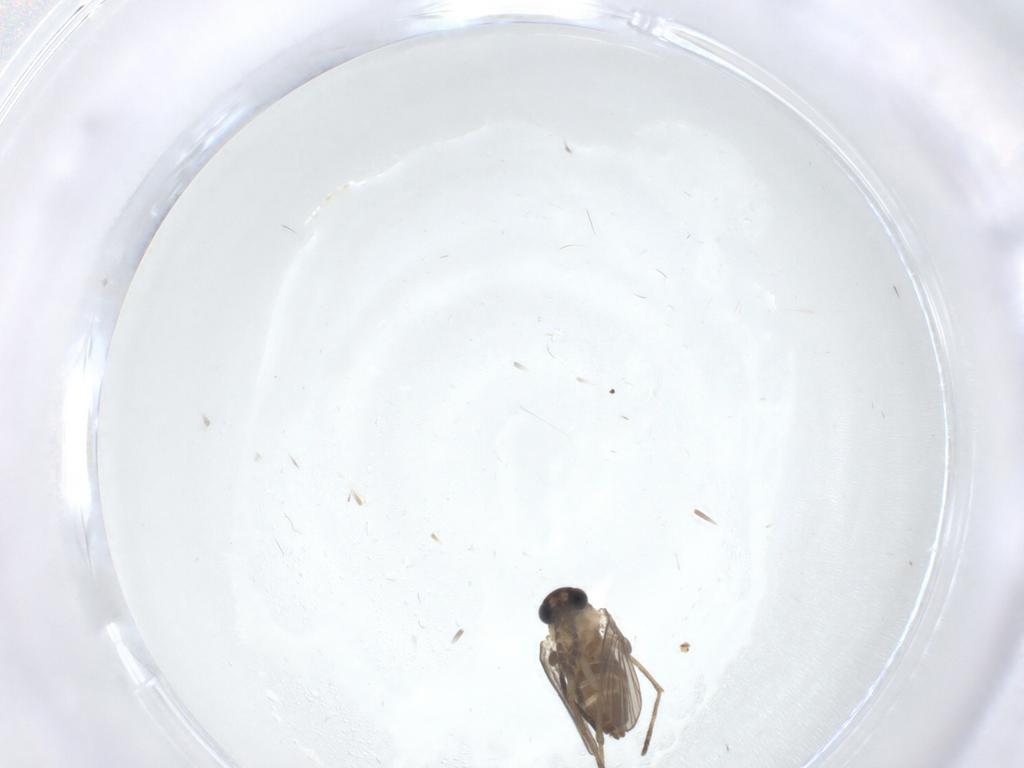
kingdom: Animalia
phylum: Arthropoda
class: Insecta
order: Diptera
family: Chironomidae
